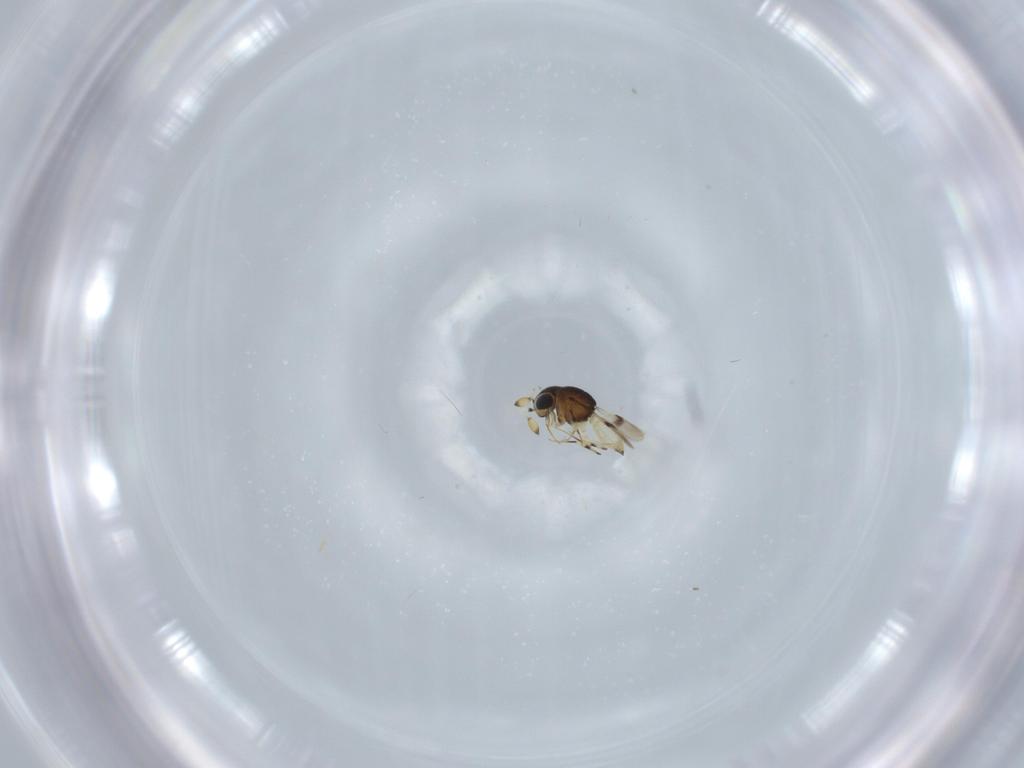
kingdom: Animalia
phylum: Arthropoda
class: Insecta
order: Hymenoptera
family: Scelionidae
